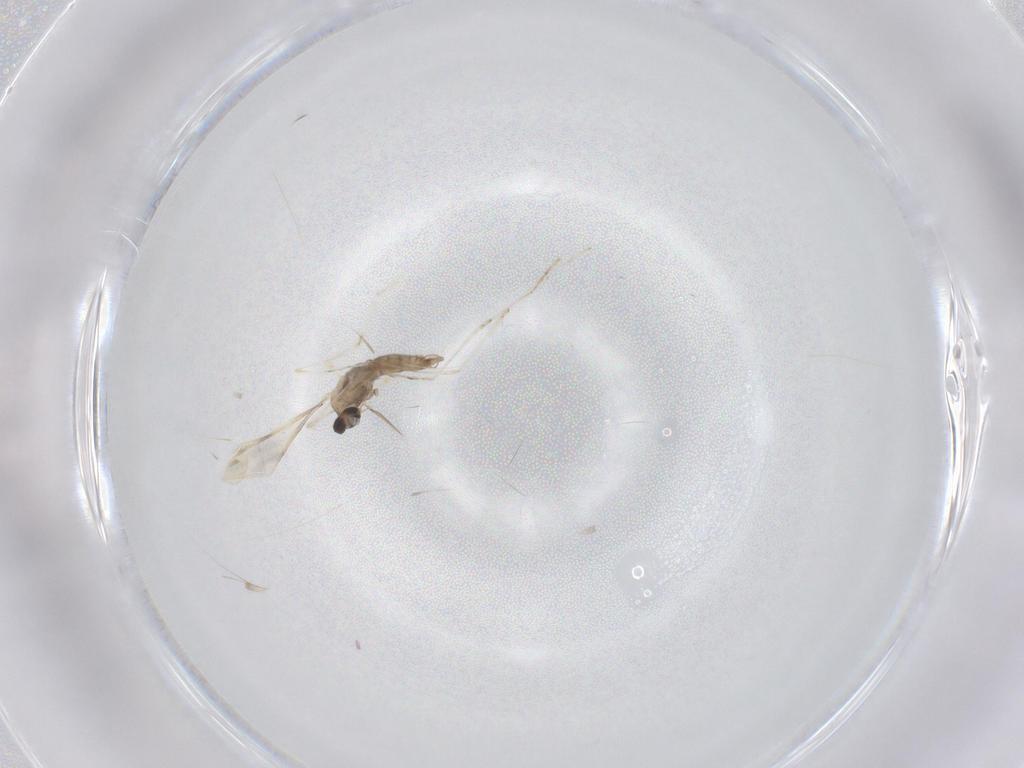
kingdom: Animalia
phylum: Arthropoda
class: Insecta
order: Diptera
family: Cecidomyiidae
